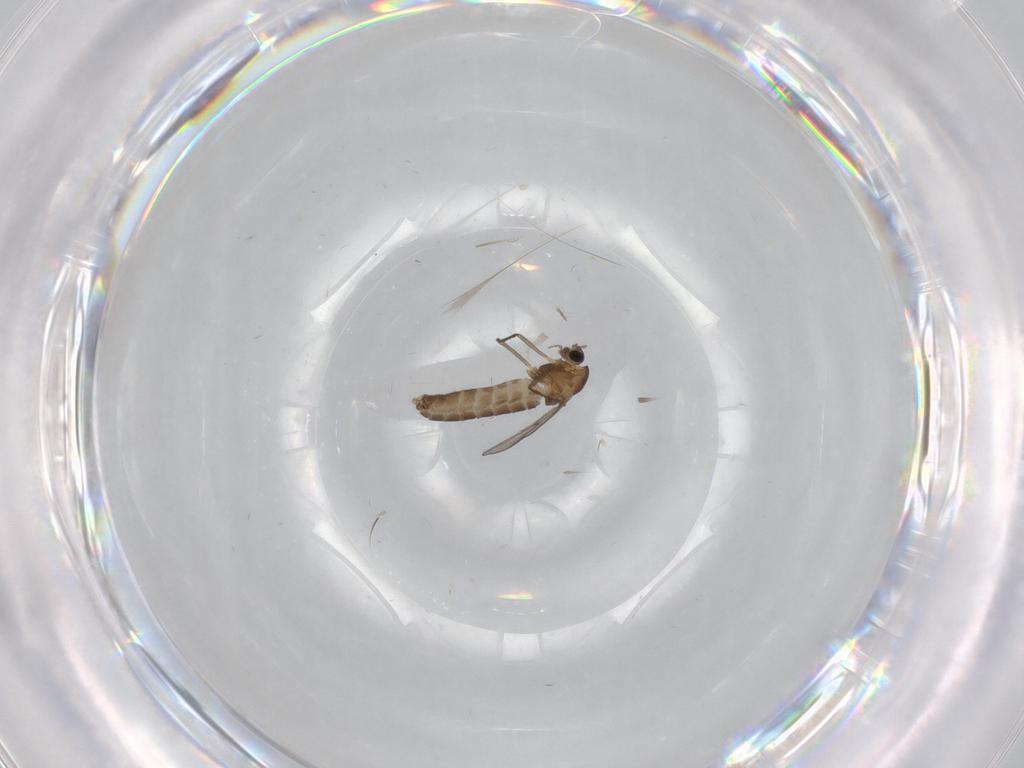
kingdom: Animalia
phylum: Arthropoda
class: Insecta
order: Diptera
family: Chironomidae
